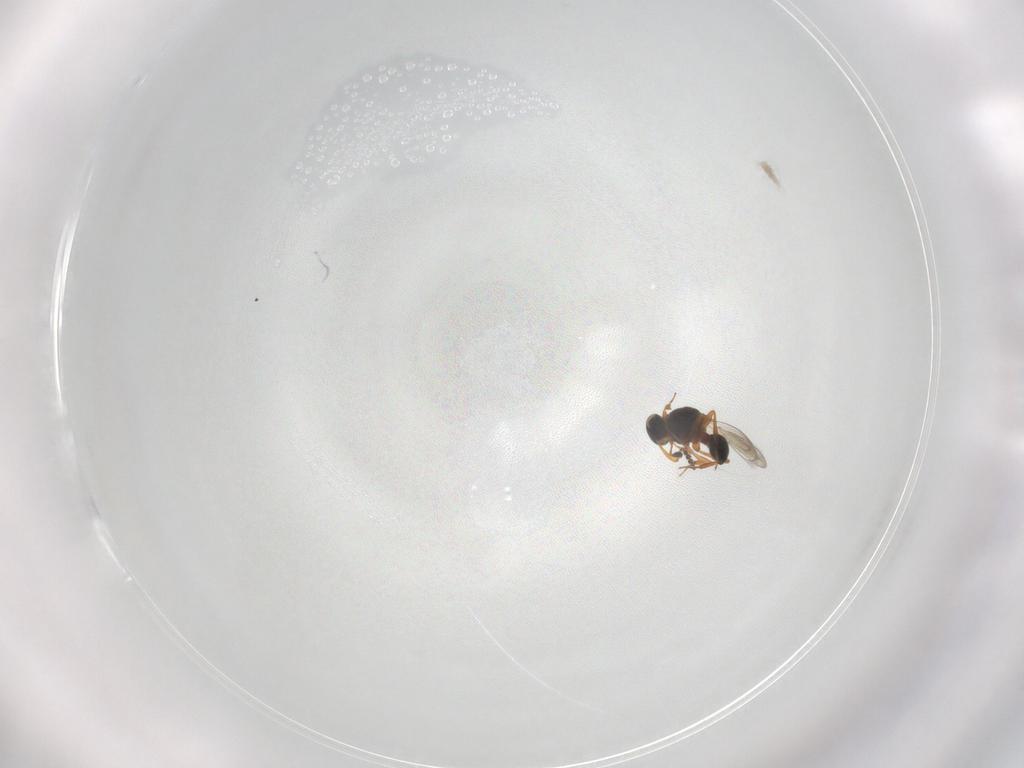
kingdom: Animalia
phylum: Arthropoda
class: Insecta
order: Hymenoptera
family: Platygastridae
